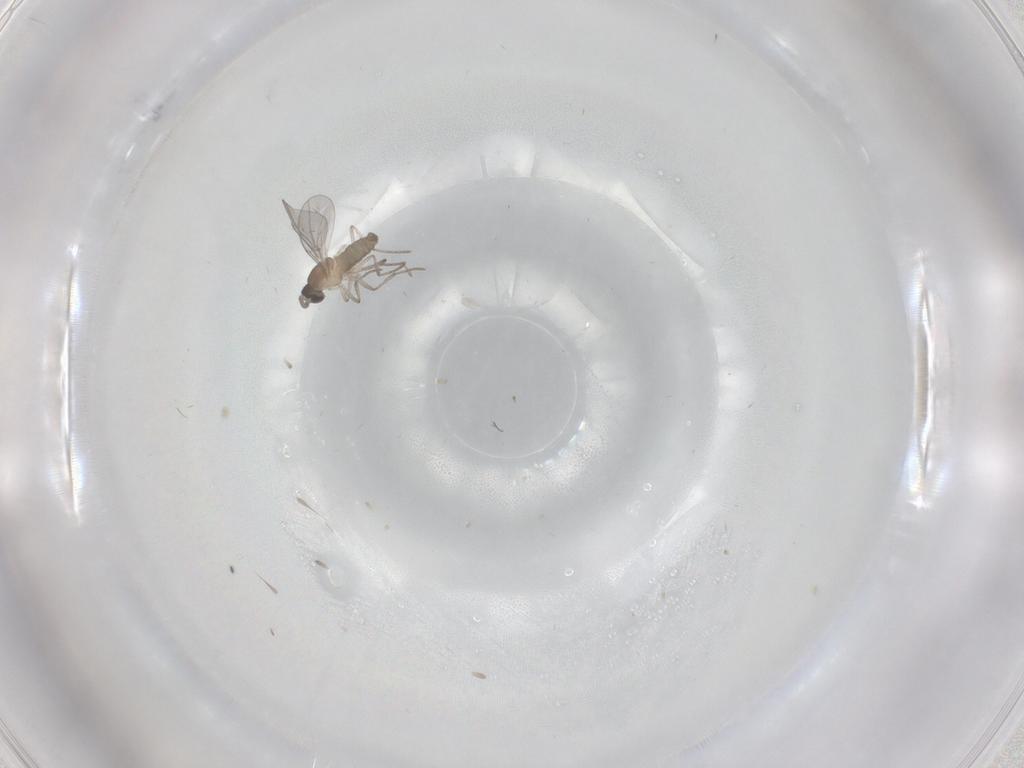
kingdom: Animalia
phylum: Arthropoda
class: Insecta
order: Diptera
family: Cecidomyiidae
